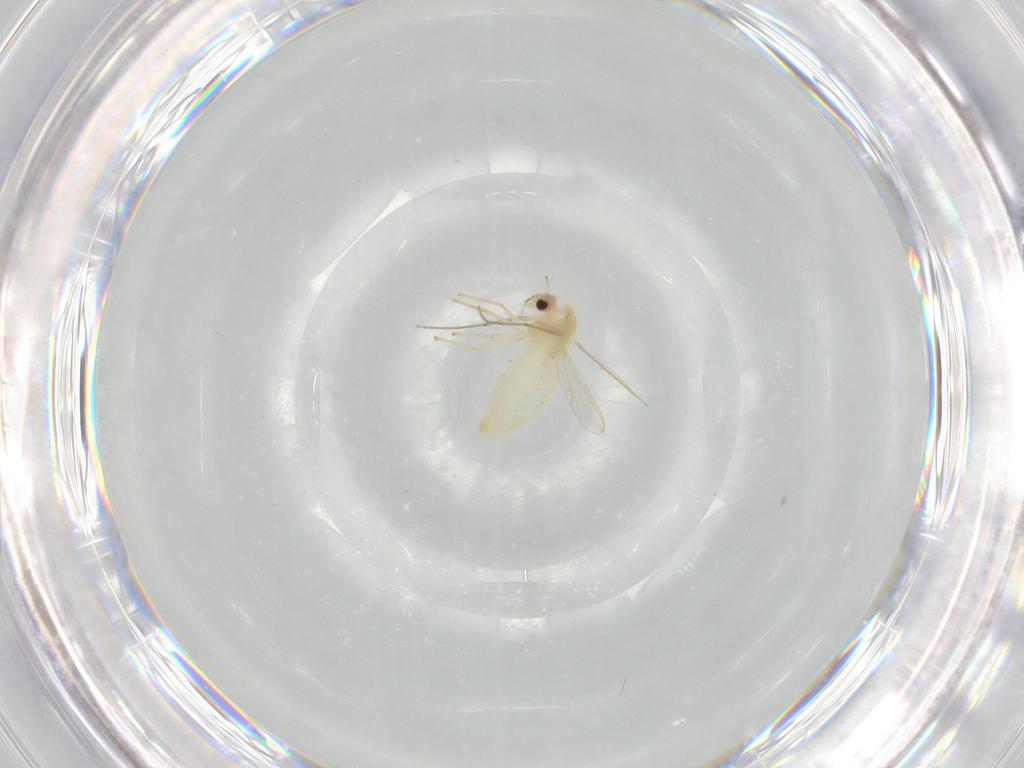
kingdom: Animalia
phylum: Arthropoda
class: Insecta
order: Diptera
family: Chironomidae
